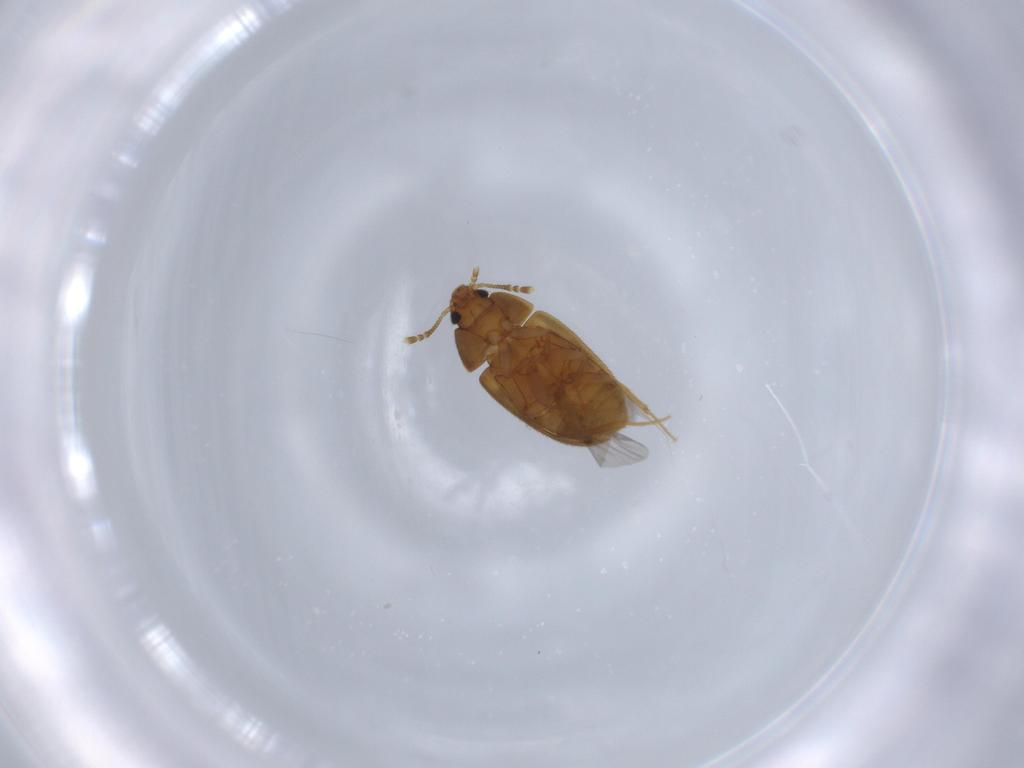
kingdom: Animalia
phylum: Arthropoda
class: Insecta
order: Coleoptera
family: Mycetophagidae
